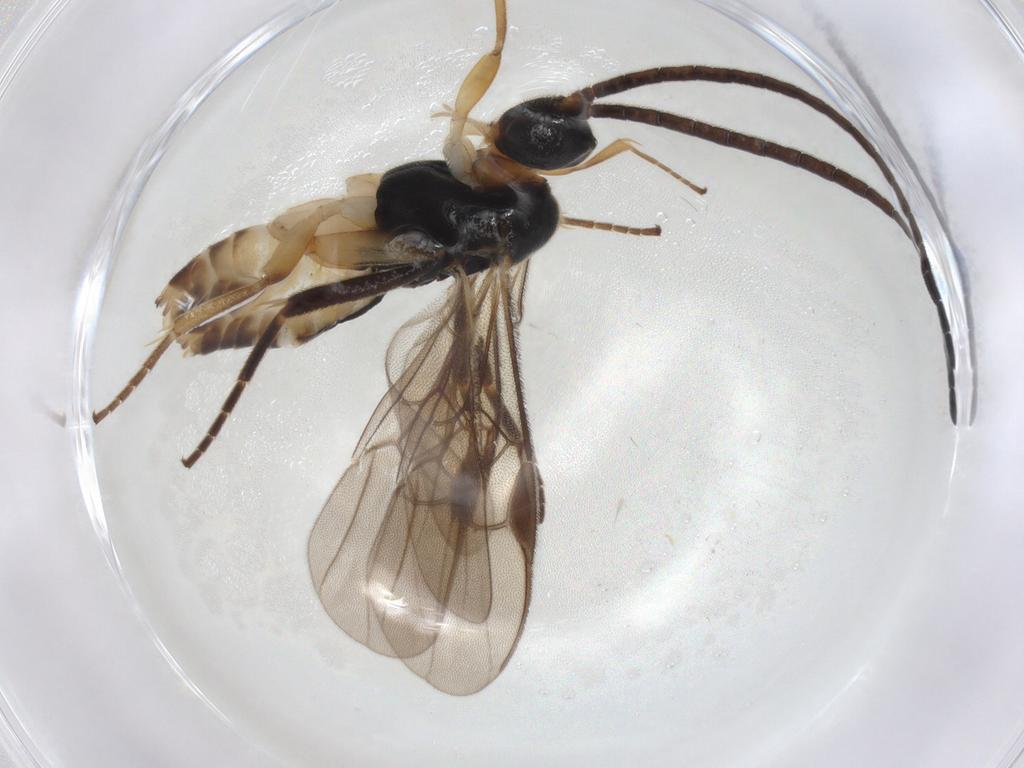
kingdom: Animalia
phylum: Arthropoda
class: Insecta
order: Hymenoptera
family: Braconidae
